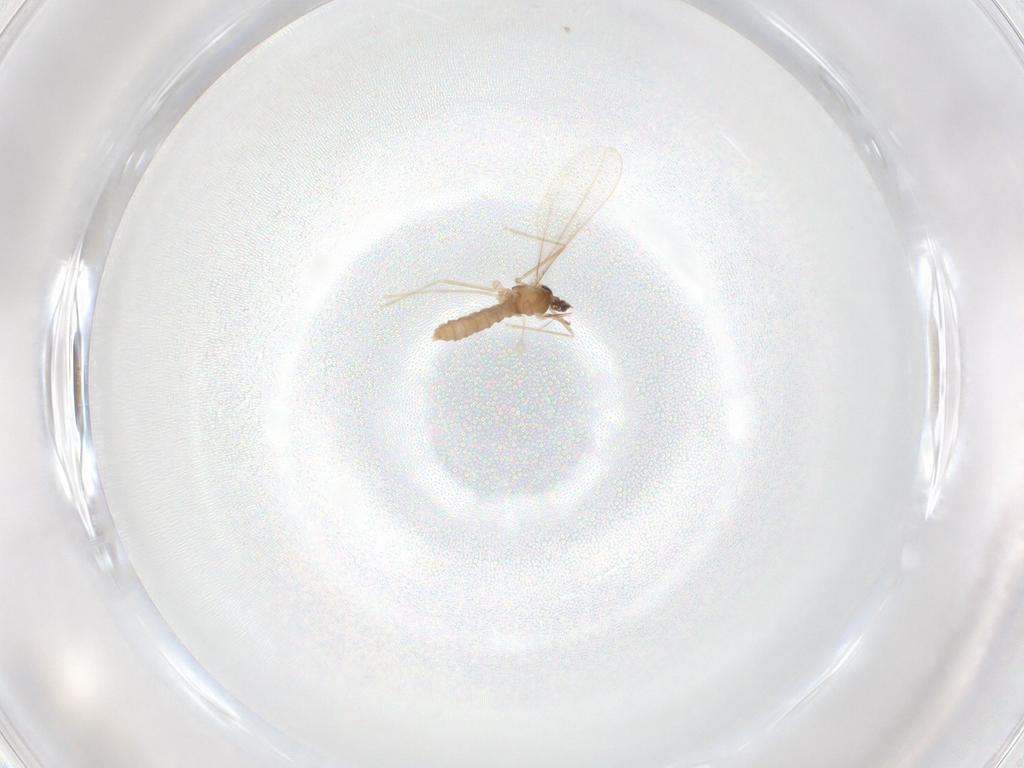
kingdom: Animalia
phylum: Arthropoda
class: Insecta
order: Diptera
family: Cecidomyiidae
